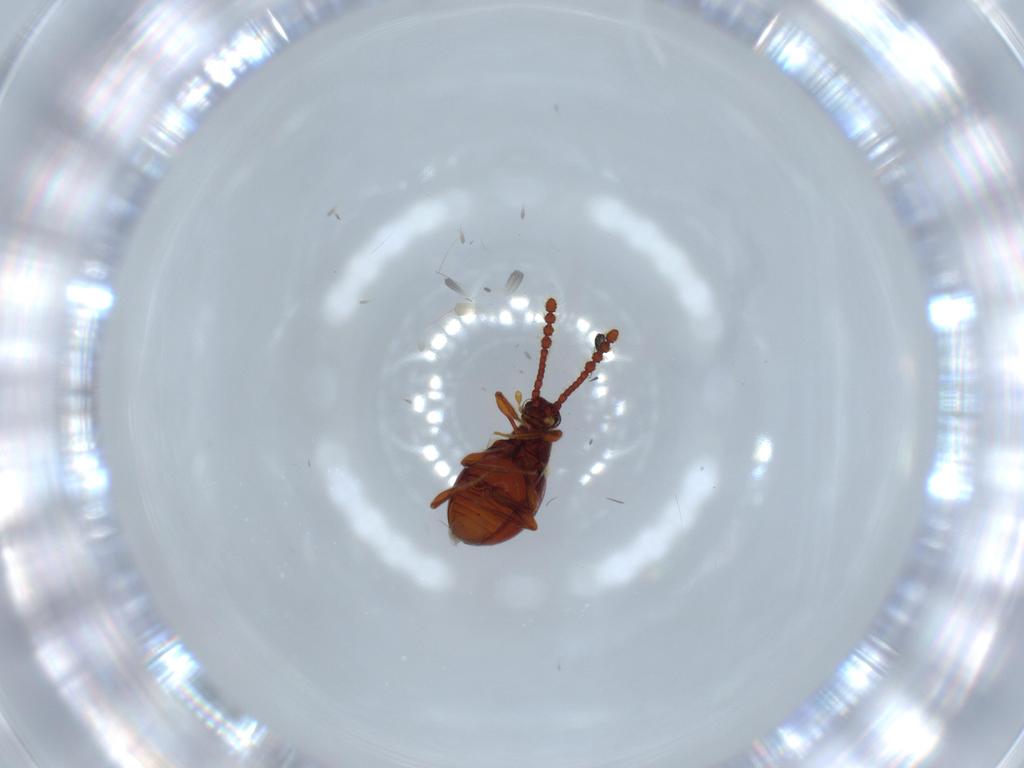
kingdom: Animalia
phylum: Arthropoda
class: Insecta
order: Coleoptera
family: Staphylinidae
